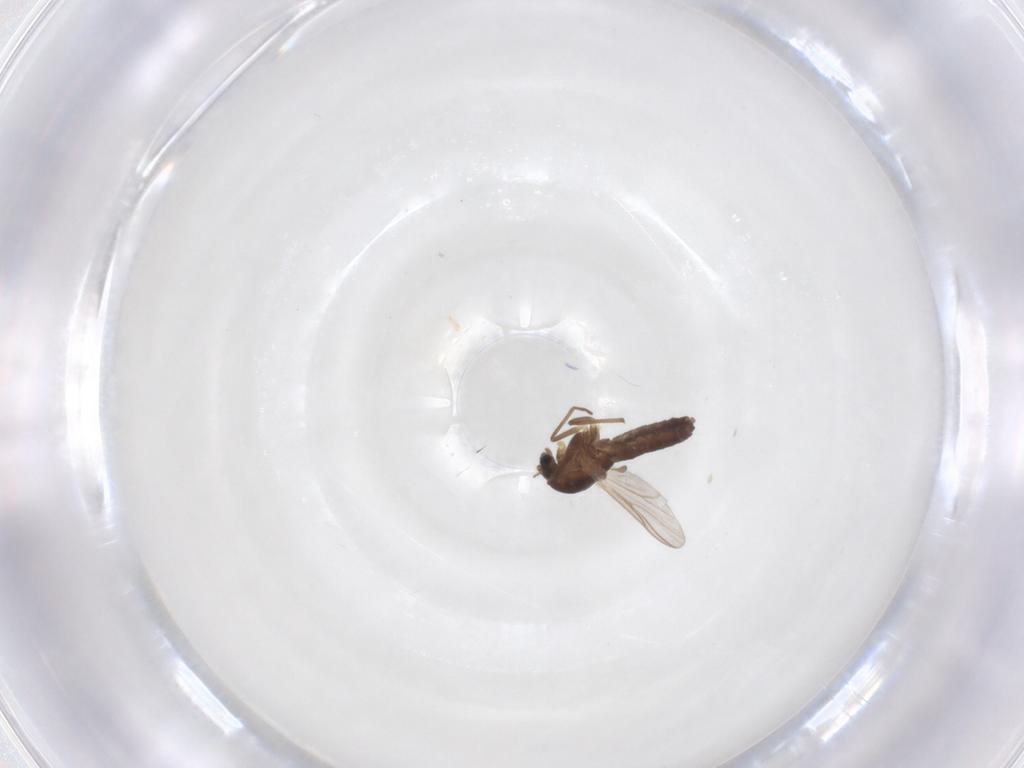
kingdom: Animalia
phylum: Arthropoda
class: Insecta
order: Diptera
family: Chironomidae
